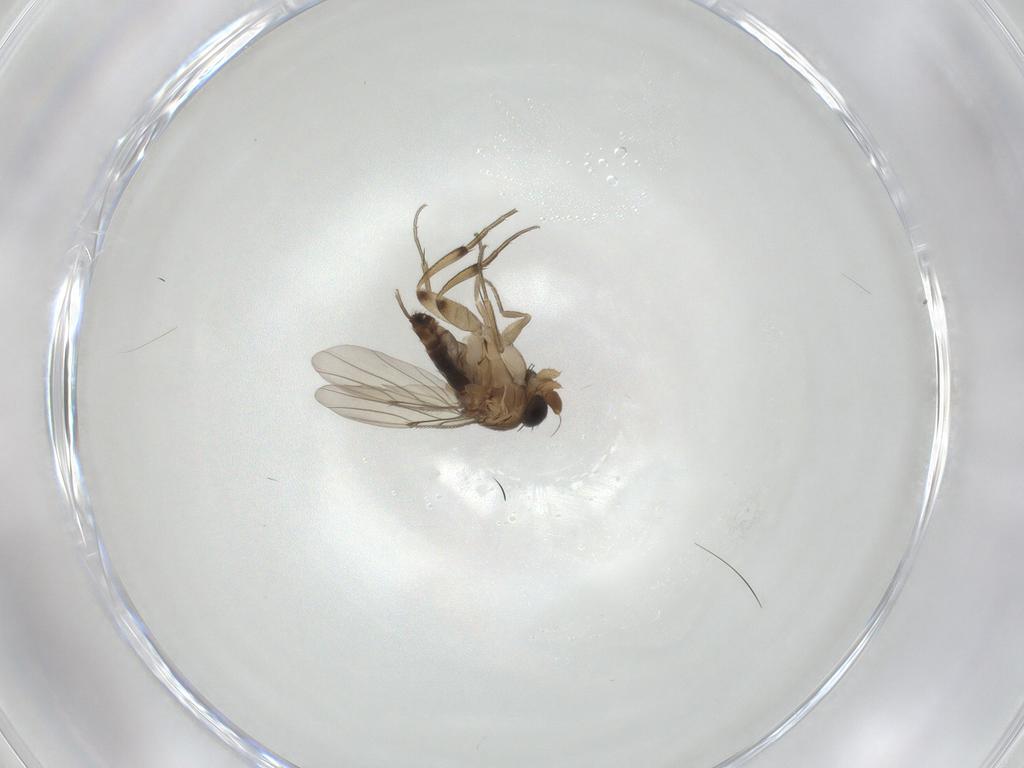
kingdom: Animalia
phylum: Arthropoda
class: Insecta
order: Diptera
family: Phoridae
